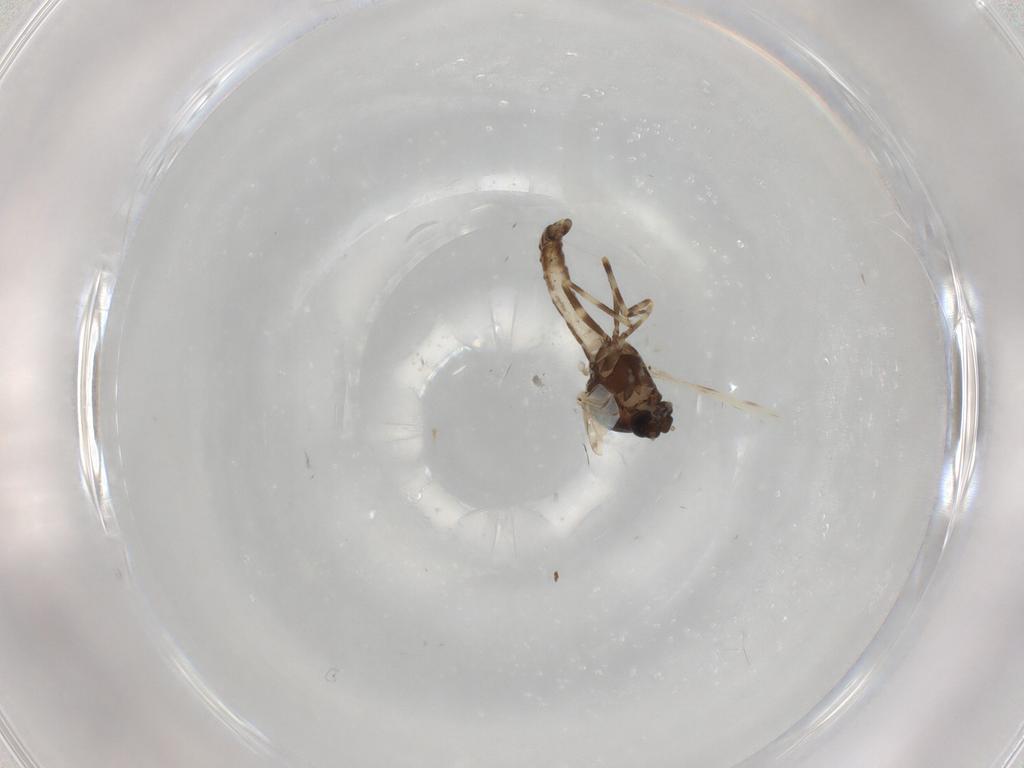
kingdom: Animalia
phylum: Arthropoda
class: Insecta
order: Diptera
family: Ceratopogonidae
